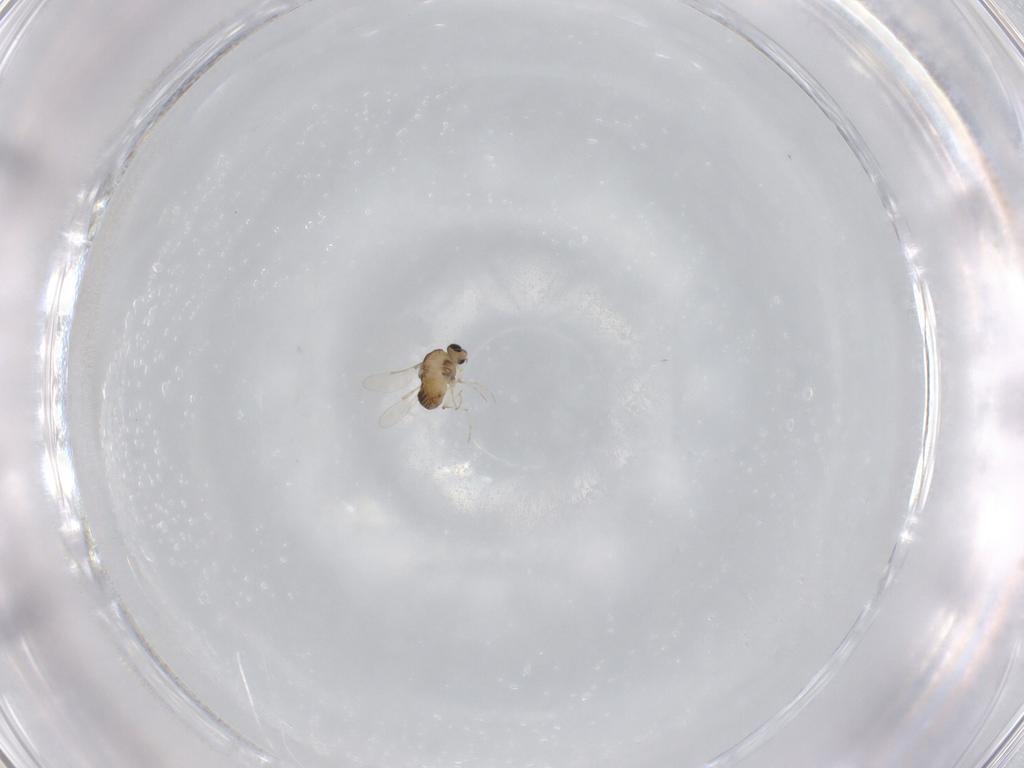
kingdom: Animalia
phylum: Arthropoda
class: Insecta
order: Diptera
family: Chironomidae
